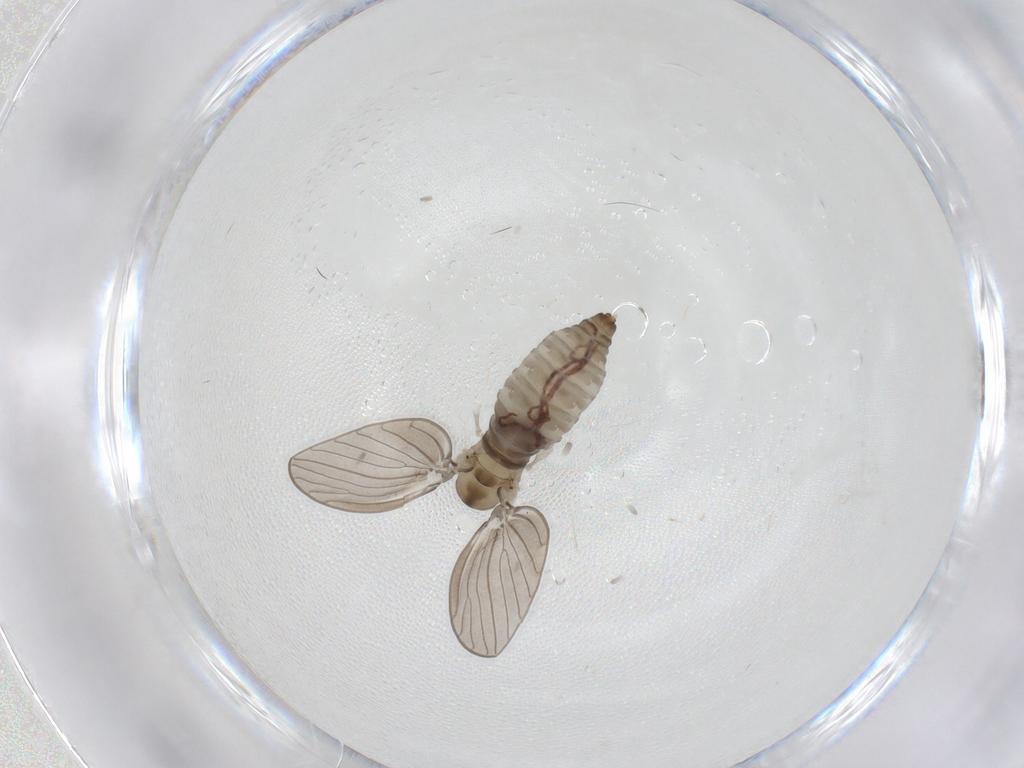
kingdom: Animalia
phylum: Arthropoda
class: Insecta
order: Diptera
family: Psychodidae
